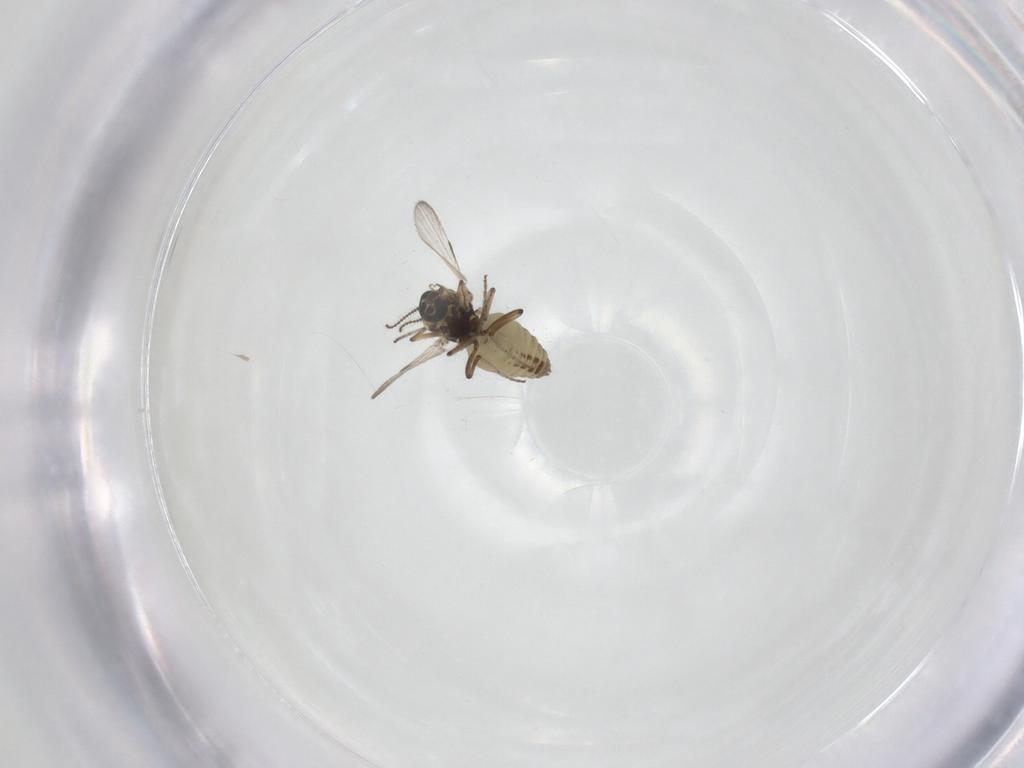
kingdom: Animalia
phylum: Arthropoda
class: Insecta
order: Diptera
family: Ceratopogonidae
